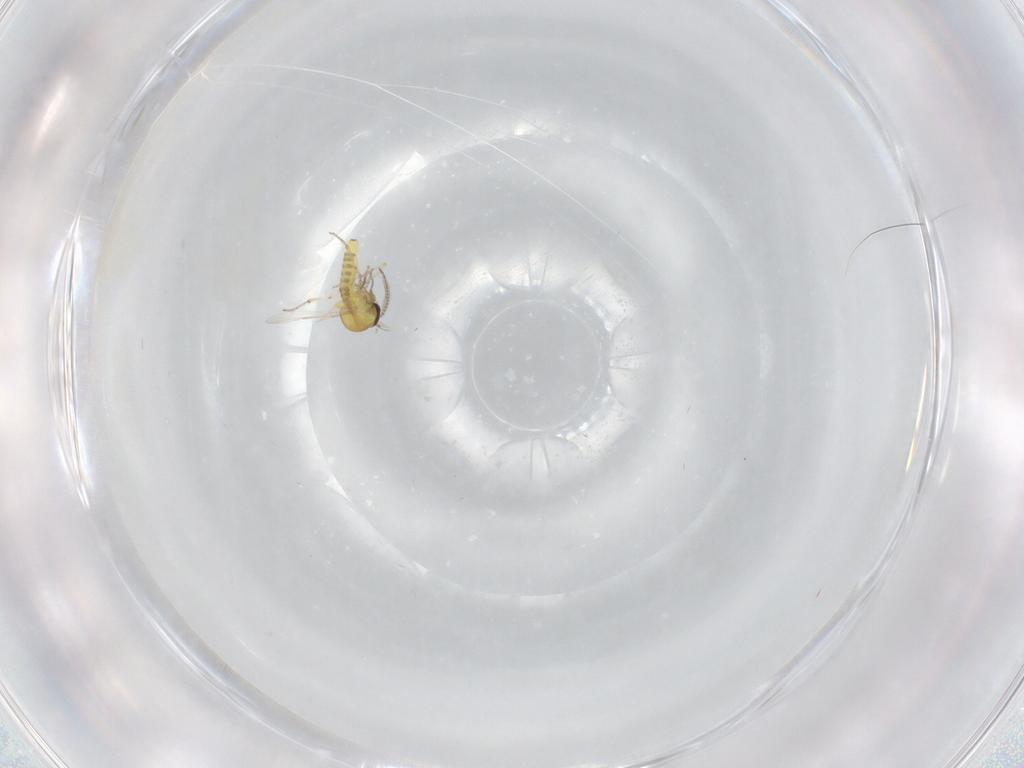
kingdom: Animalia
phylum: Arthropoda
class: Insecta
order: Diptera
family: Ceratopogonidae
